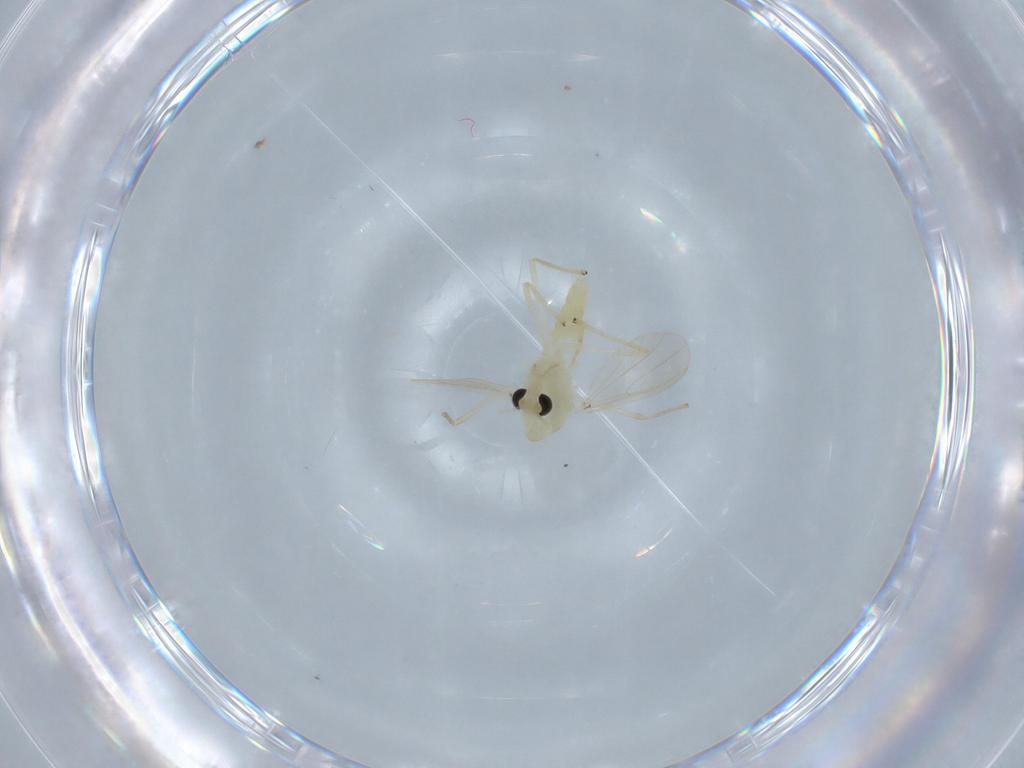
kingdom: Animalia
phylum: Arthropoda
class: Insecta
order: Diptera
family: Chironomidae
